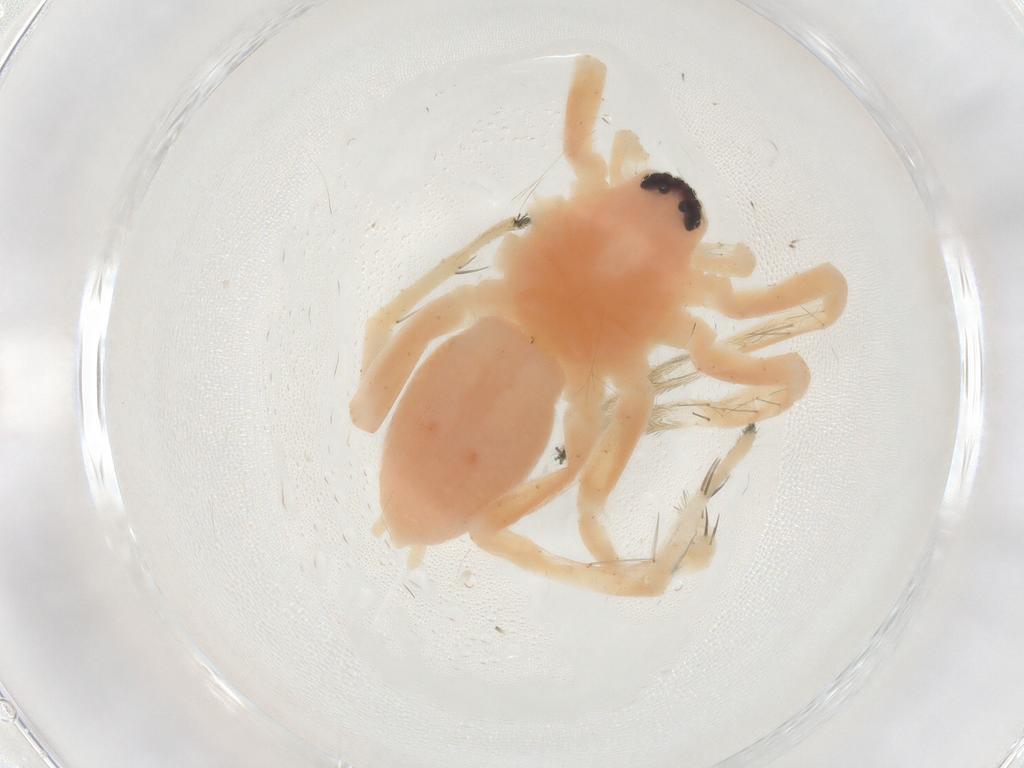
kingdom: Animalia
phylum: Arthropoda
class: Arachnida
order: Araneae
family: Anyphaenidae
